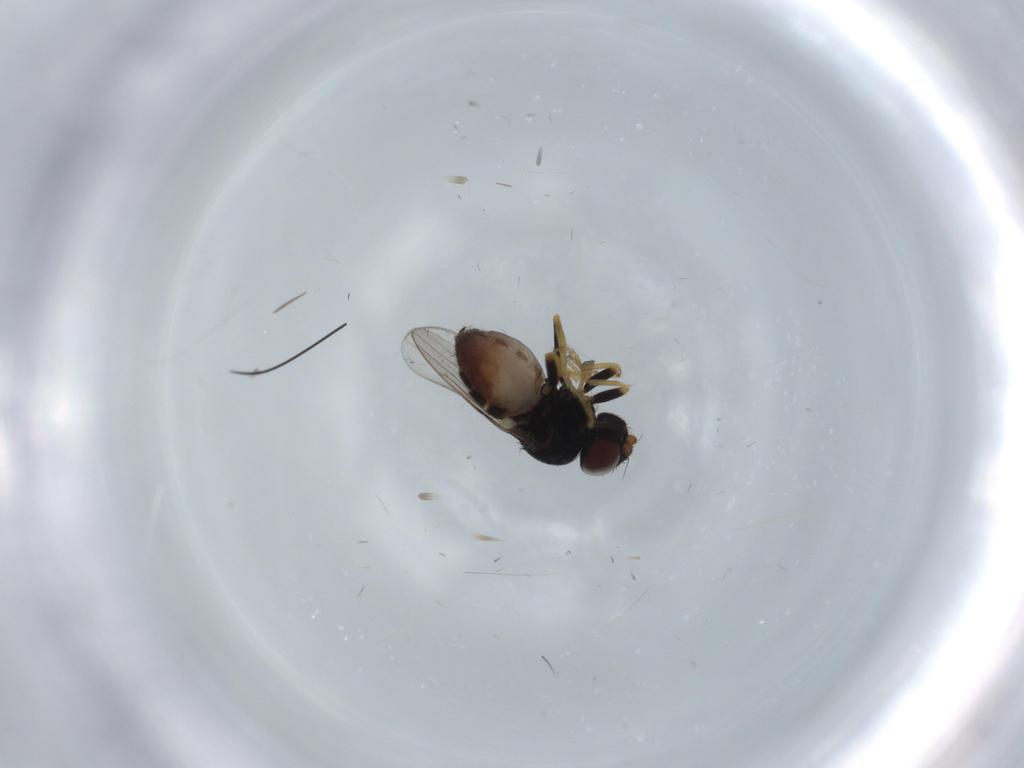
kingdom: Animalia
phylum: Arthropoda
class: Insecta
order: Diptera
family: Chloropidae
